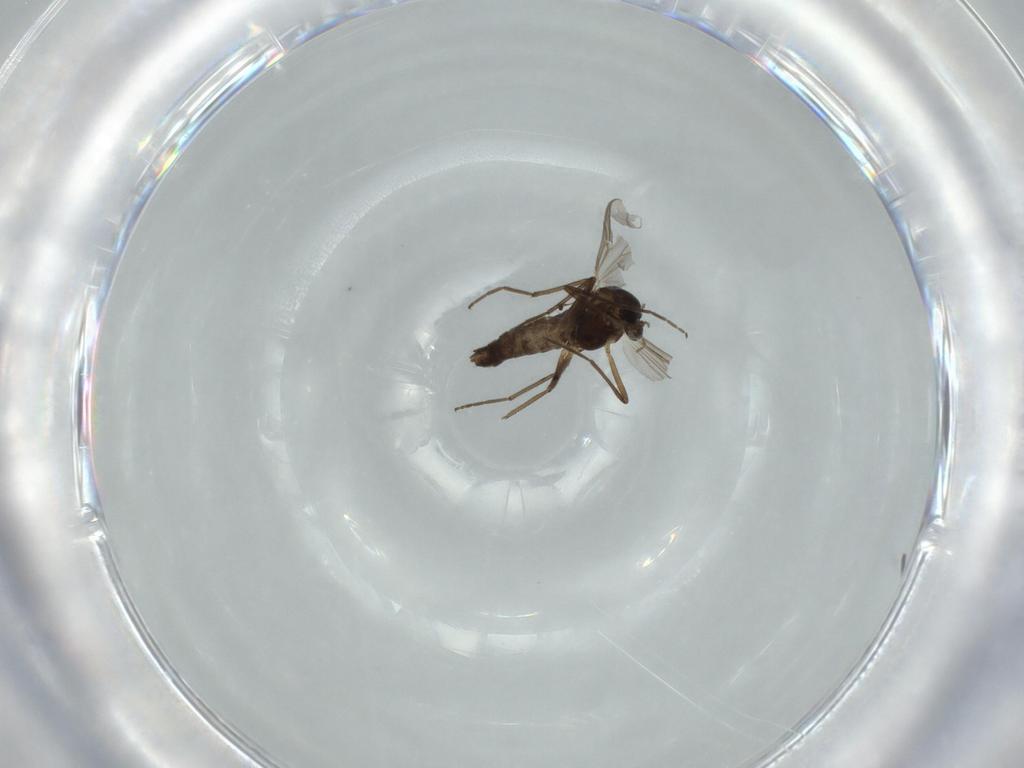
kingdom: Animalia
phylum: Arthropoda
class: Insecta
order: Diptera
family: Chironomidae
